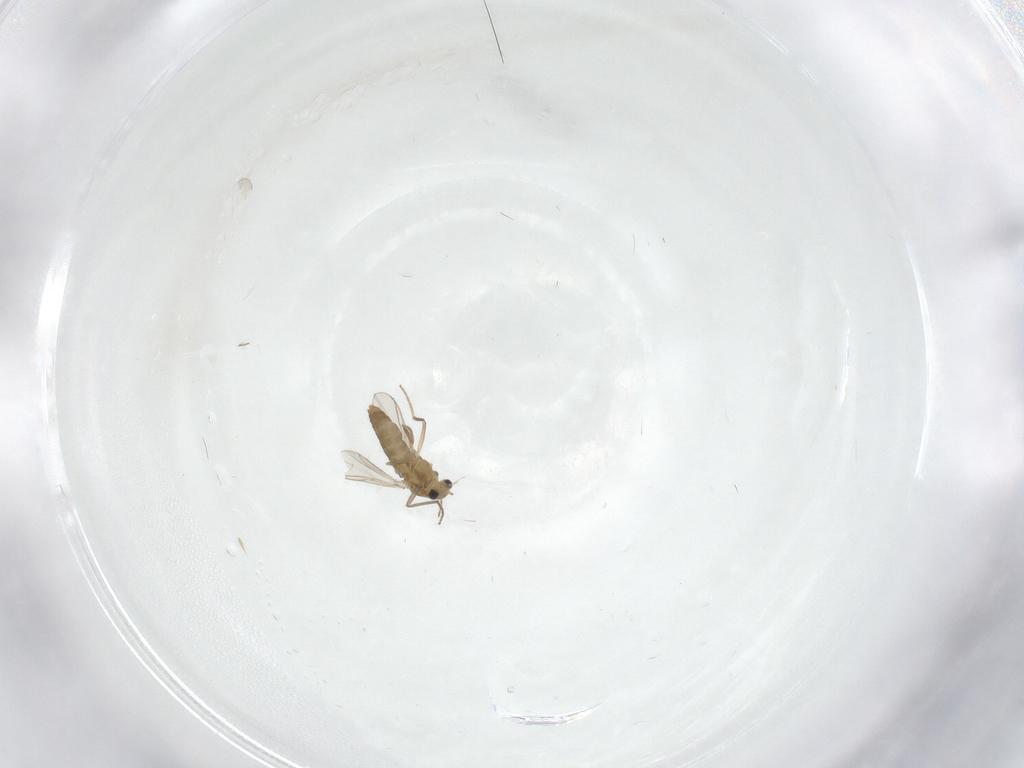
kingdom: Animalia
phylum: Arthropoda
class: Insecta
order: Diptera
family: Chironomidae
